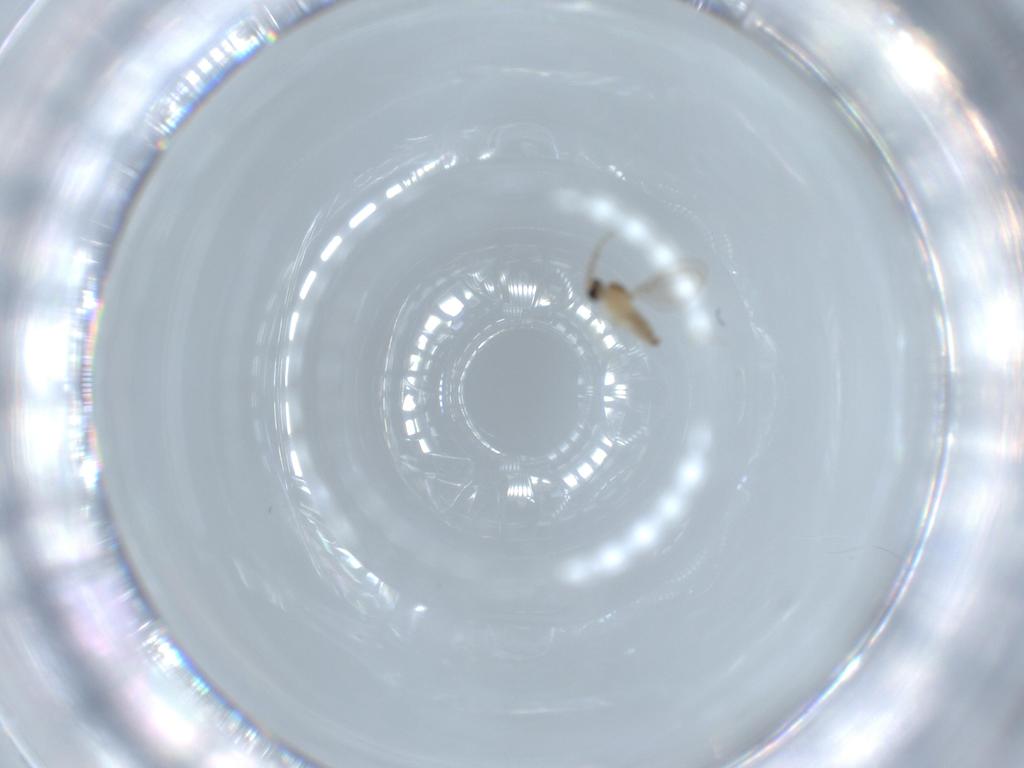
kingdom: Animalia
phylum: Arthropoda
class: Insecta
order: Diptera
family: Cecidomyiidae
